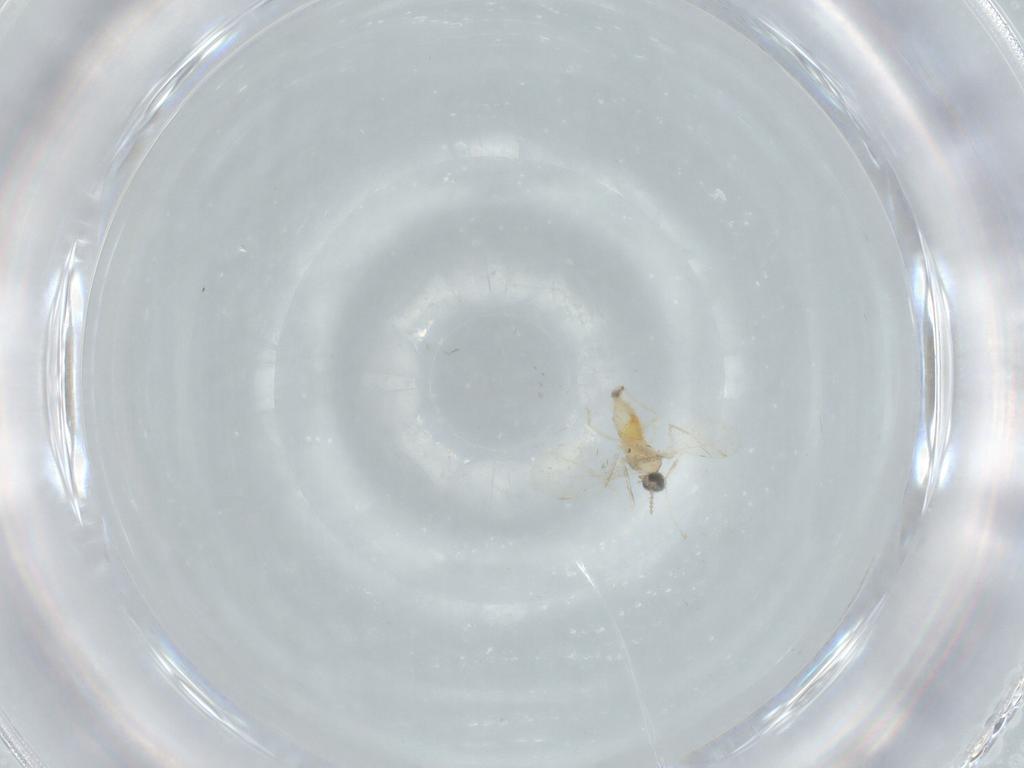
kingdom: Animalia
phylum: Arthropoda
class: Insecta
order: Diptera
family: Cecidomyiidae
